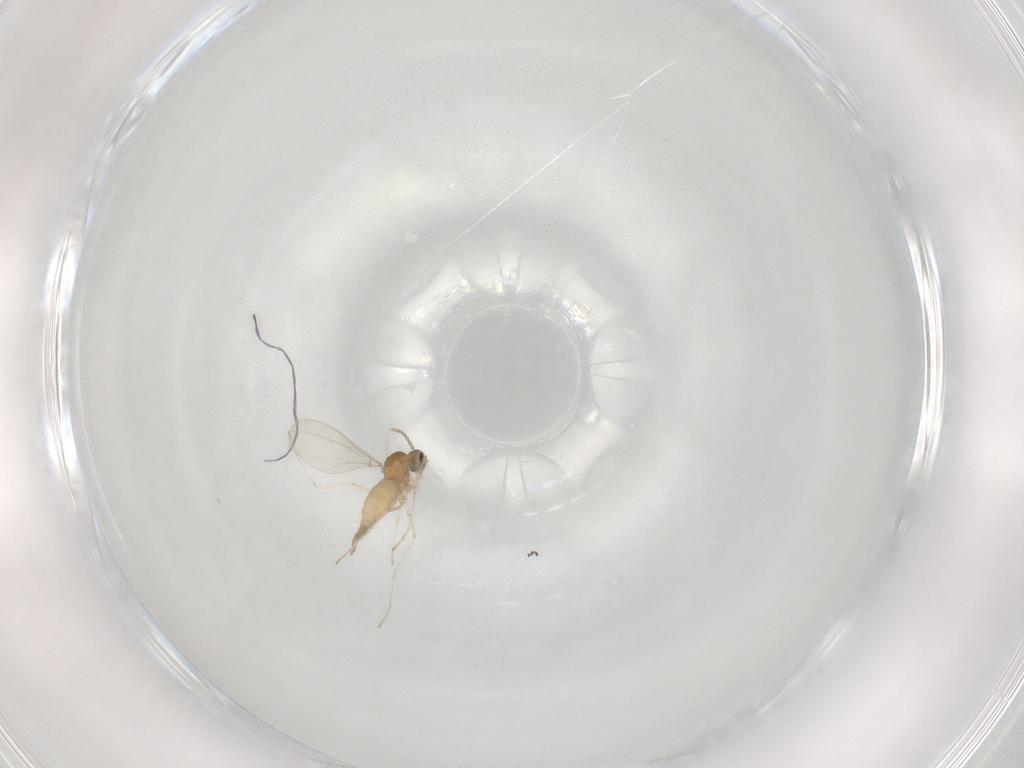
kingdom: Animalia
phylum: Arthropoda
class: Insecta
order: Diptera
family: Cecidomyiidae
